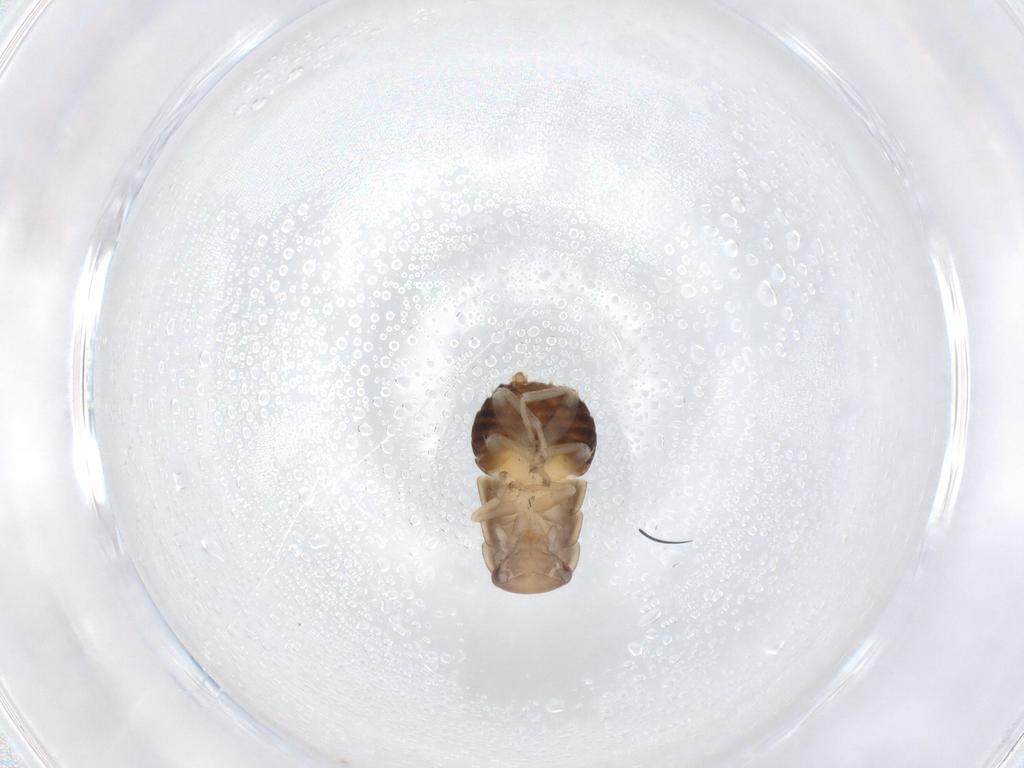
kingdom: Animalia
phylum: Arthropoda
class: Insecta
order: Blattodea
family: Ectobiidae
